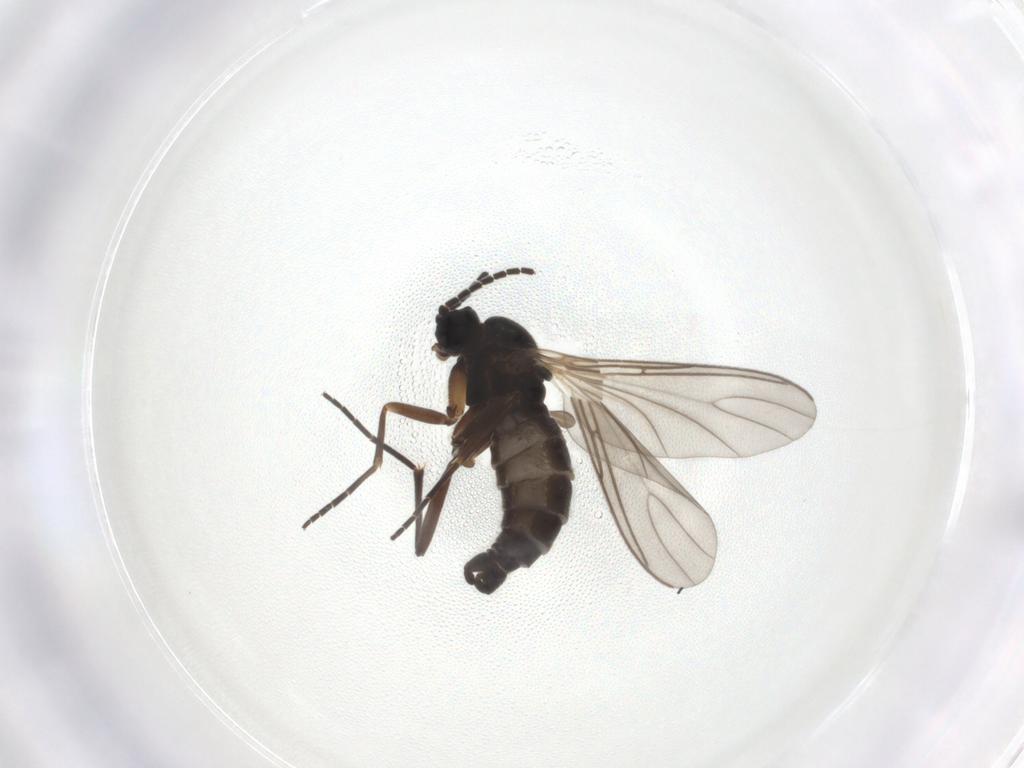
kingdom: Animalia
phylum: Arthropoda
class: Insecta
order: Diptera
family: Sciaridae
